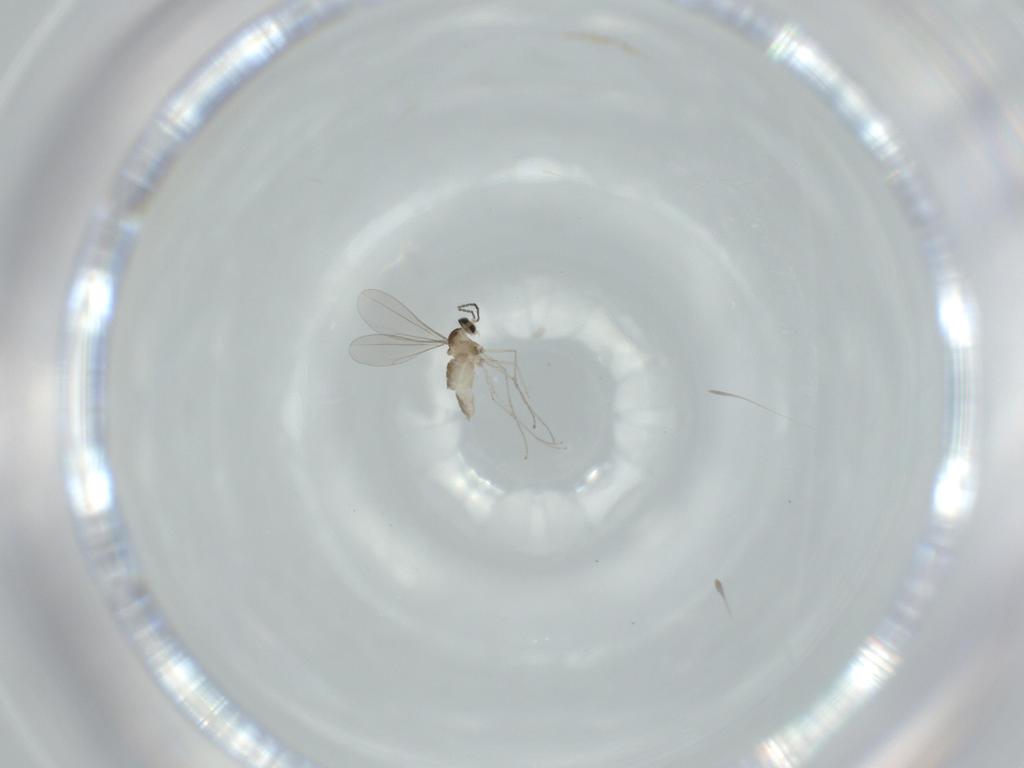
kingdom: Animalia
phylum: Arthropoda
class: Insecta
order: Diptera
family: Cecidomyiidae
